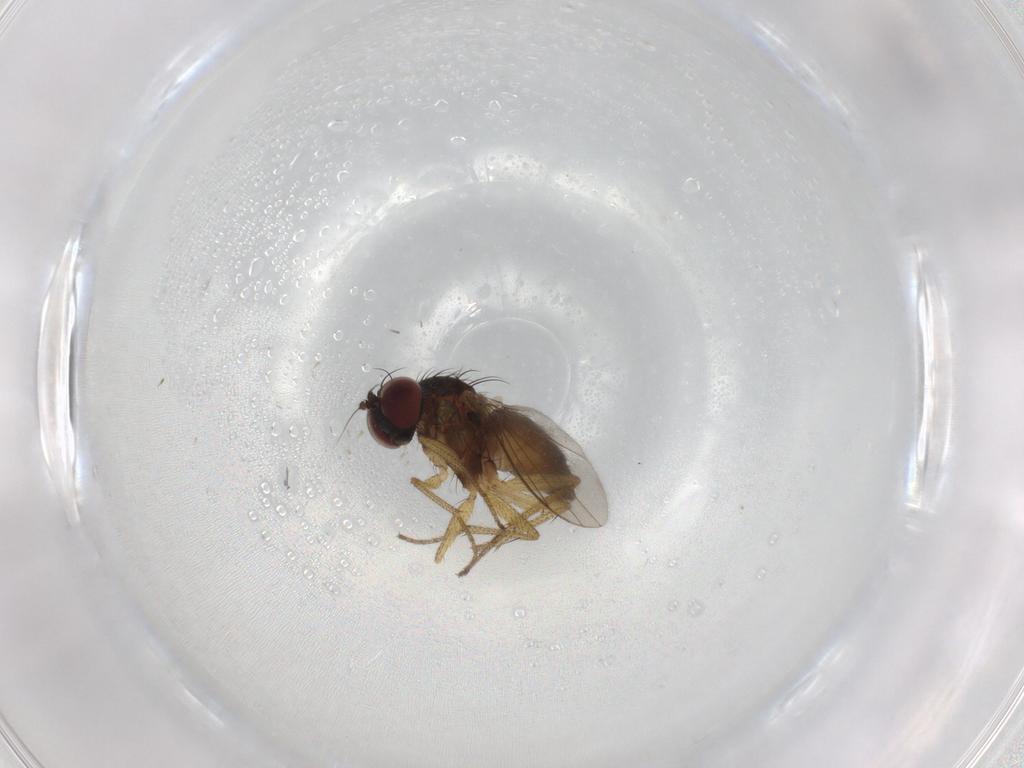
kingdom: Animalia
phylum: Arthropoda
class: Insecta
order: Diptera
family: Dolichopodidae
